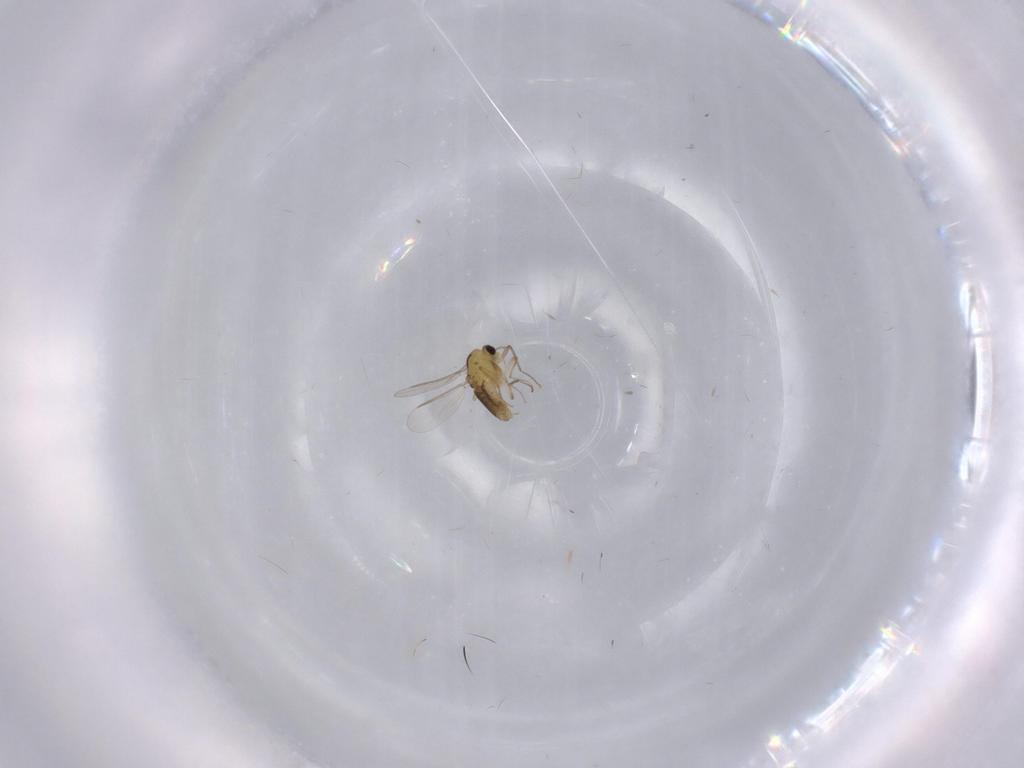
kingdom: Animalia
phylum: Arthropoda
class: Insecta
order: Diptera
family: Chironomidae
